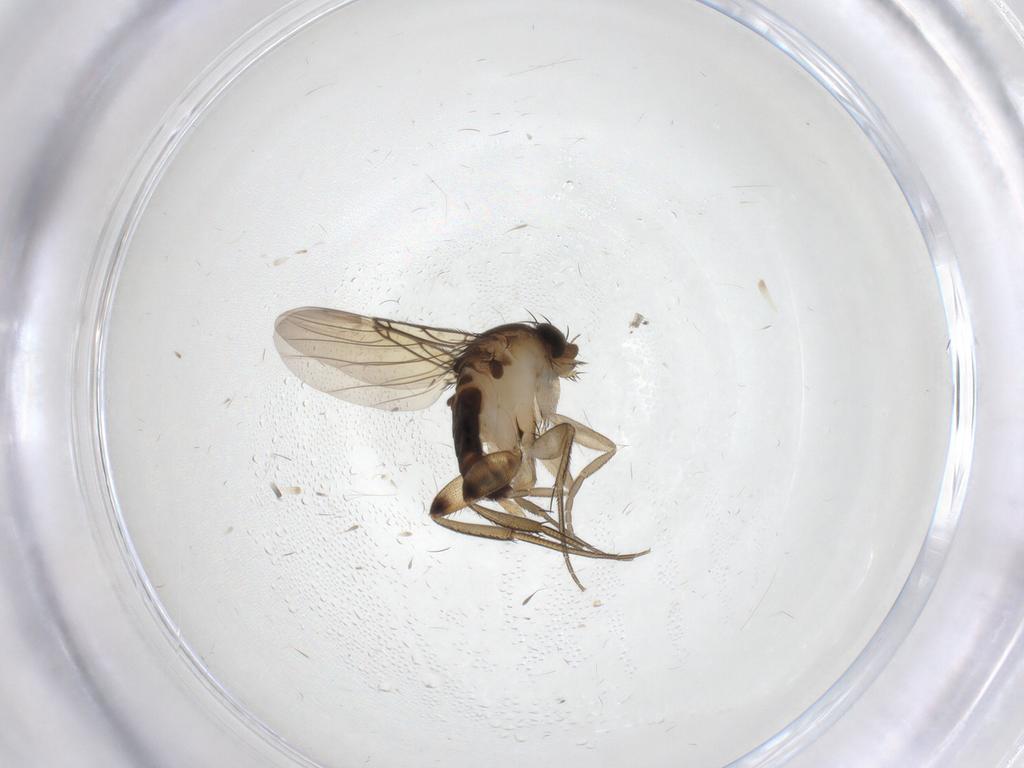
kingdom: Animalia
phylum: Arthropoda
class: Insecta
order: Diptera
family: Phoridae
